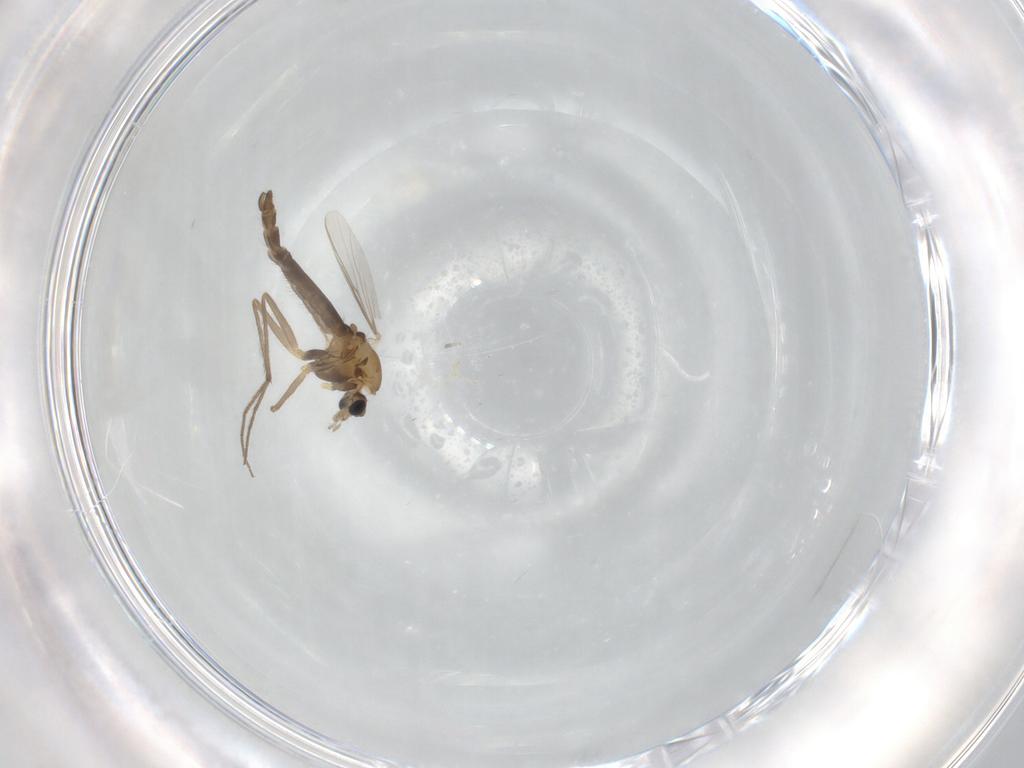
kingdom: Animalia
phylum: Arthropoda
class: Insecta
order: Diptera
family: Chironomidae
